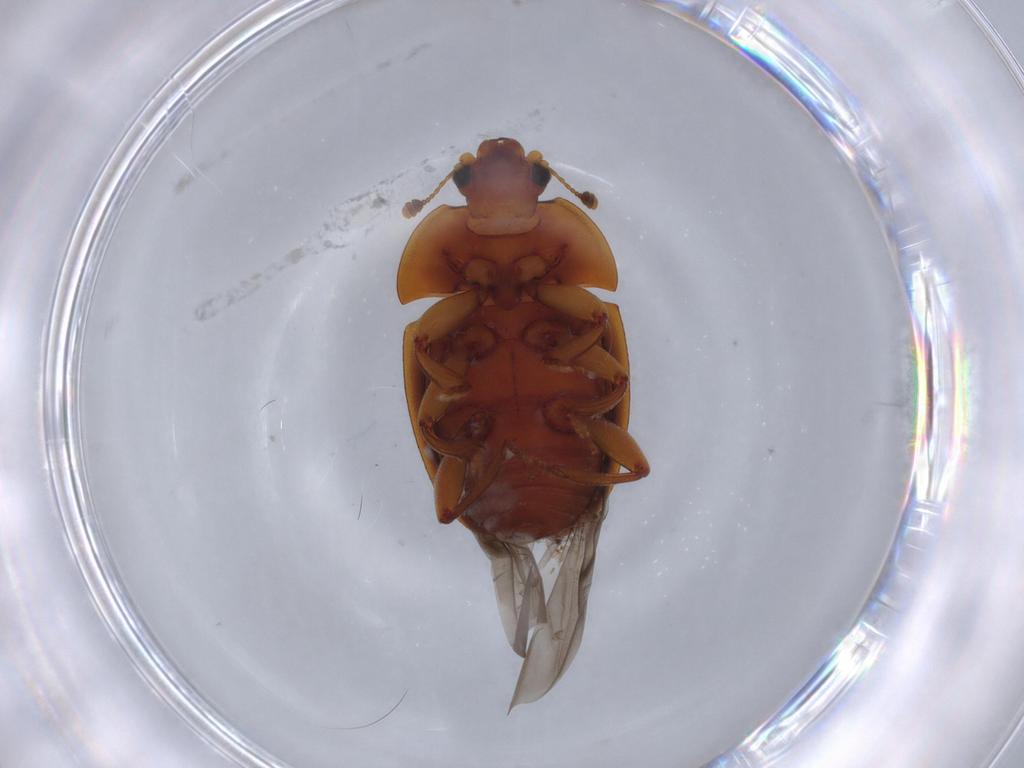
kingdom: Animalia
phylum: Arthropoda
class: Insecta
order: Coleoptera
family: Nitidulidae
